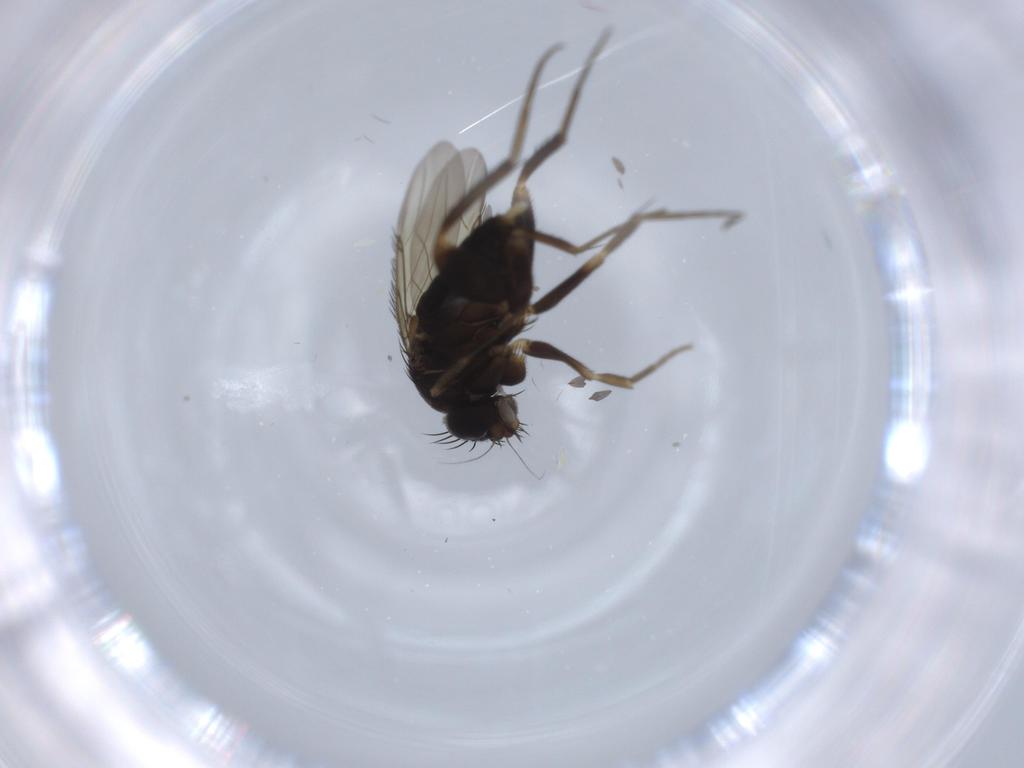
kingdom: Animalia
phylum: Arthropoda
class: Insecta
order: Diptera
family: Phoridae
